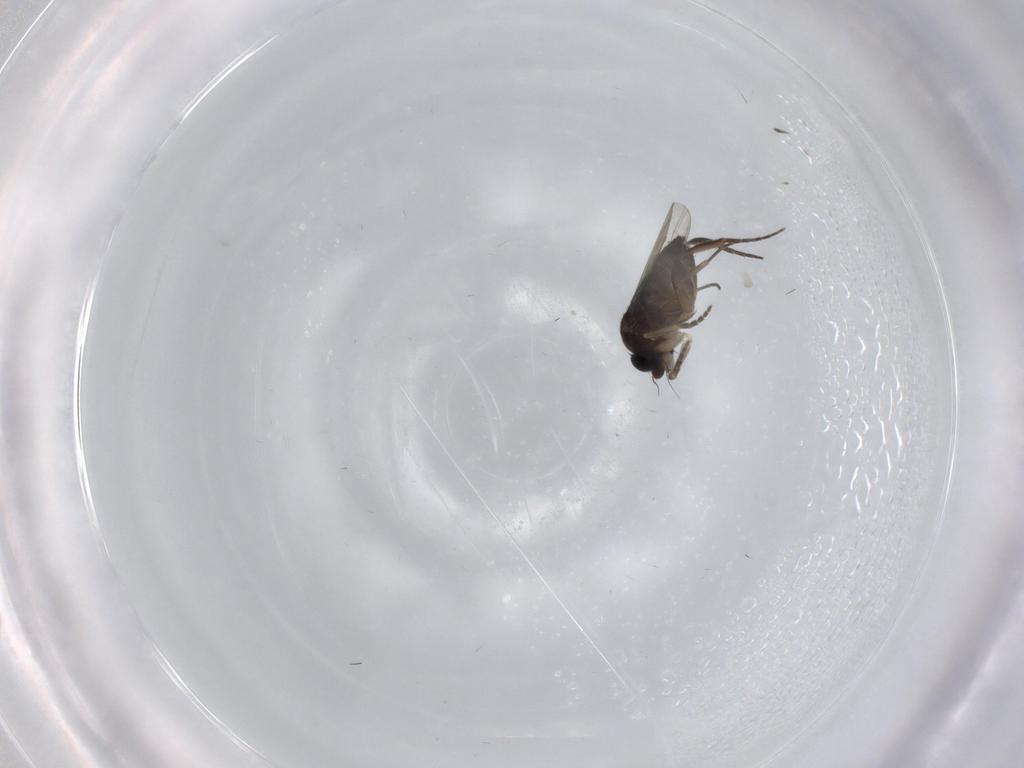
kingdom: Animalia
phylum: Arthropoda
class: Insecta
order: Diptera
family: Phoridae
